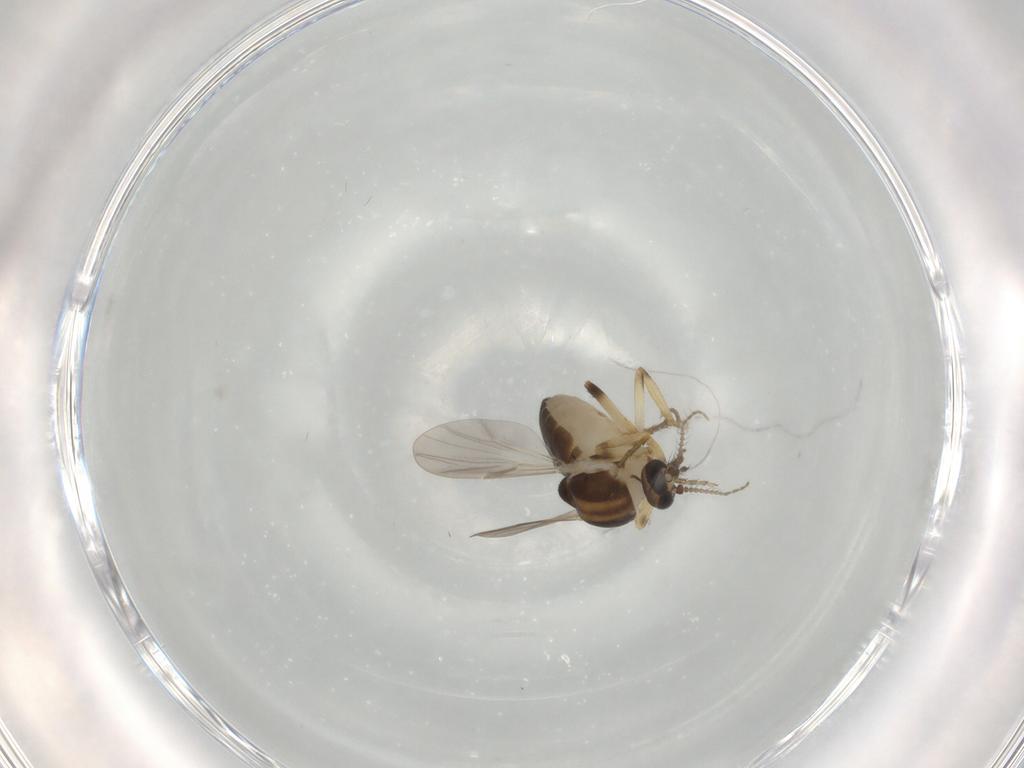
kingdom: Animalia
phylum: Arthropoda
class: Insecta
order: Diptera
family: Ceratopogonidae
